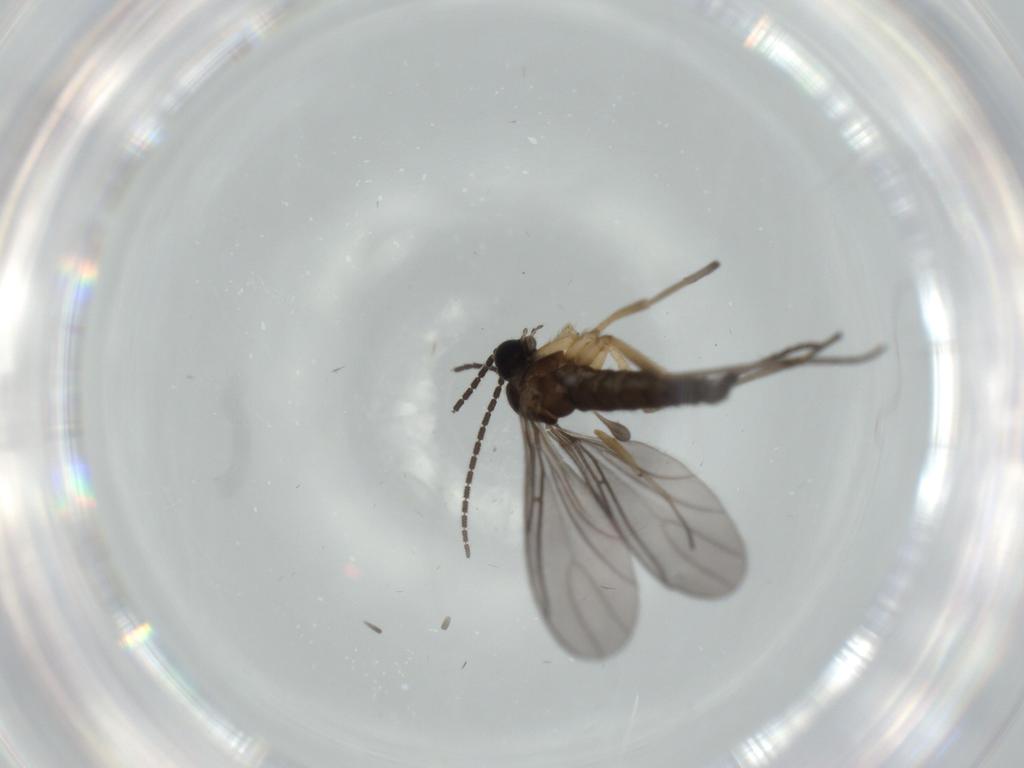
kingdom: Animalia
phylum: Arthropoda
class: Insecta
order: Diptera
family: Sciaridae
